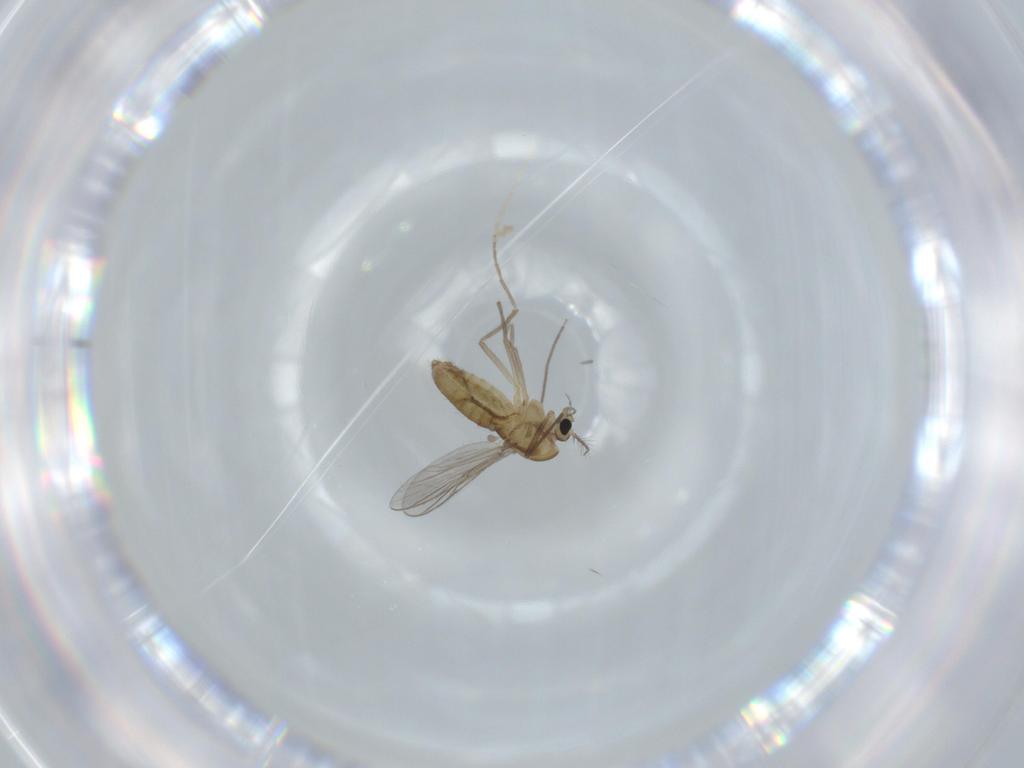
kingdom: Animalia
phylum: Arthropoda
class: Insecta
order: Diptera
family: Chironomidae
